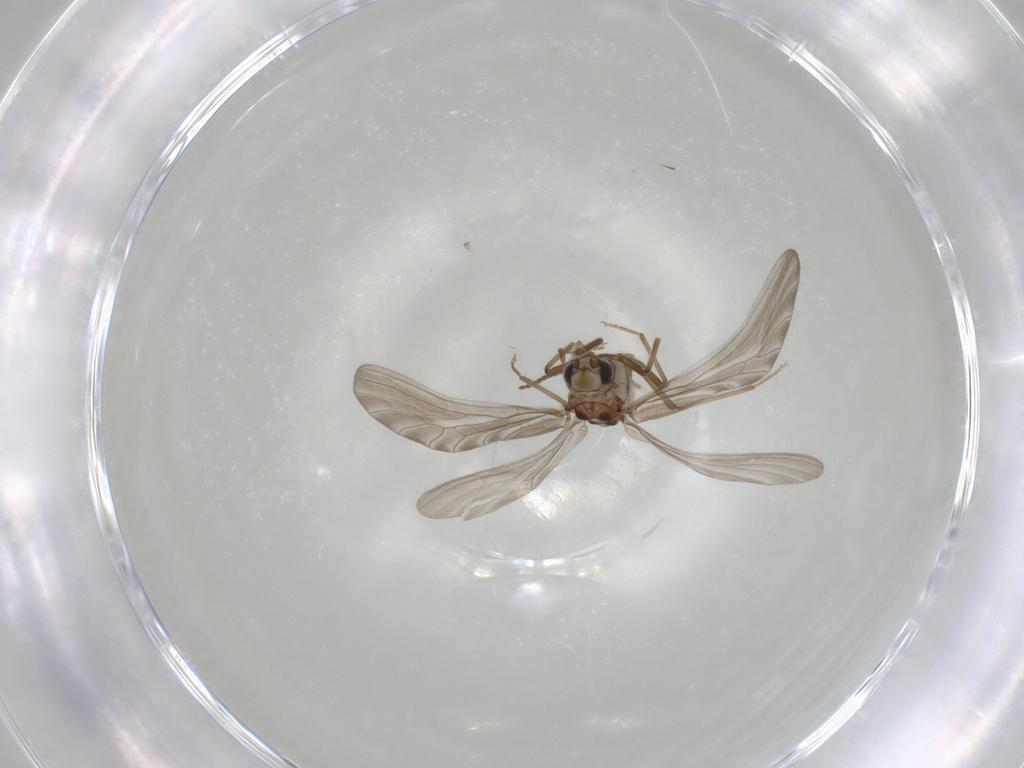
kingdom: Animalia
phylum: Arthropoda
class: Insecta
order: Neuroptera
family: Coniopterygidae
